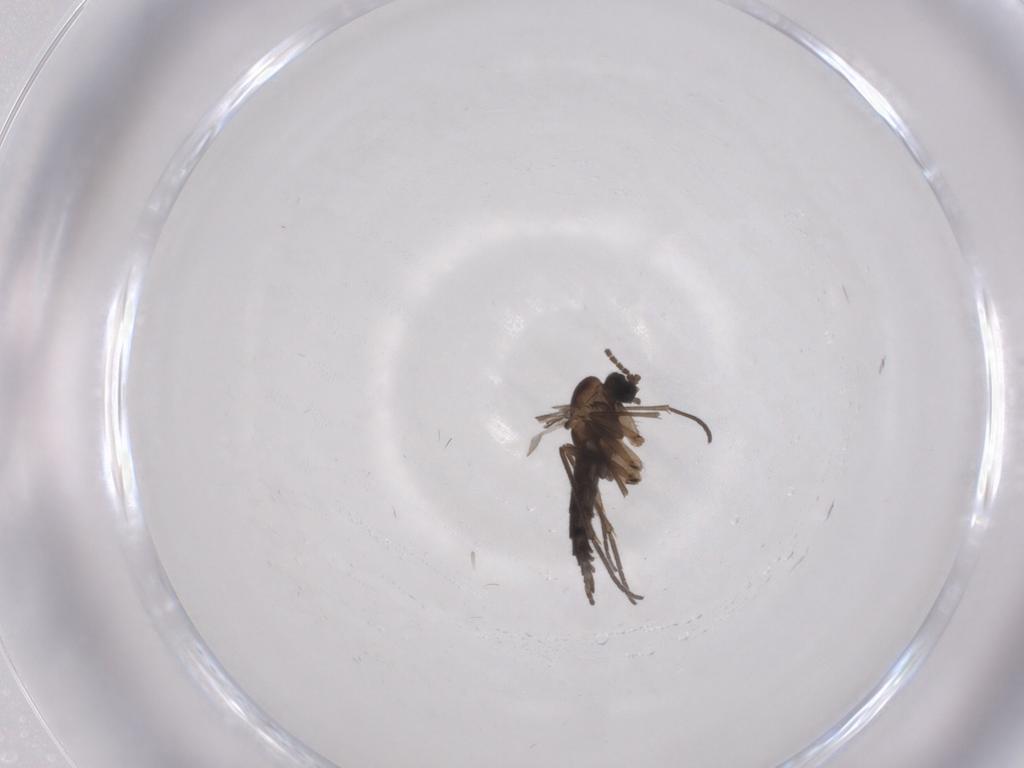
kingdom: Animalia
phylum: Arthropoda
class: Insecta
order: Diptera
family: Sciaridae
